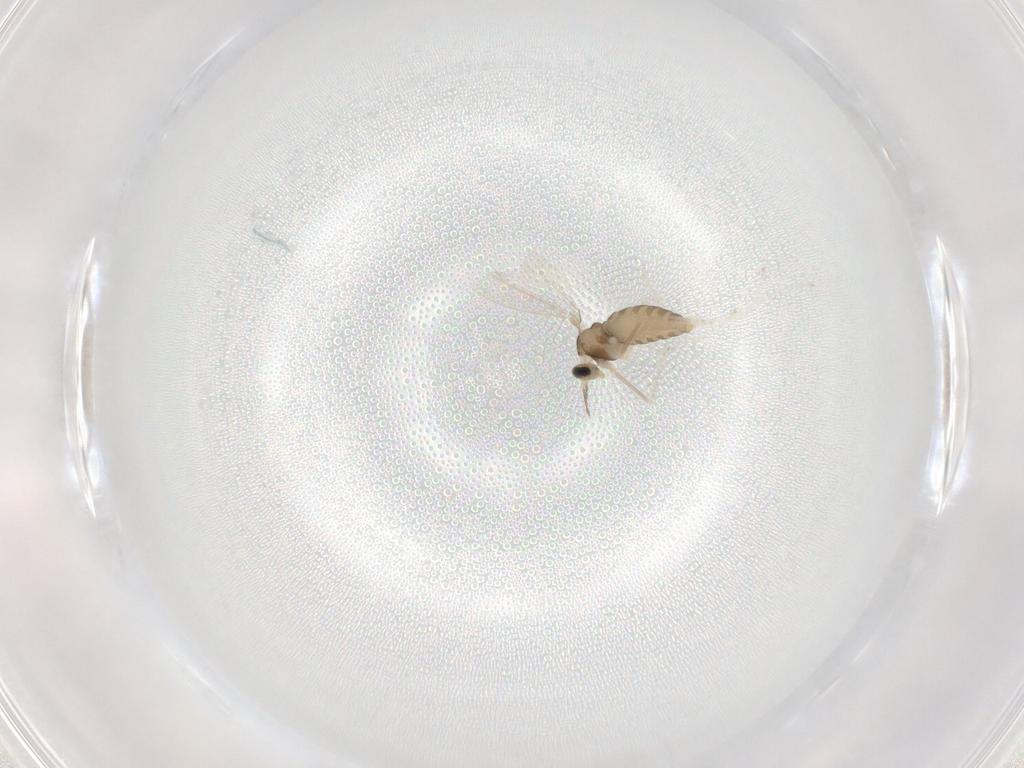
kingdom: Animalia
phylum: Arthropoda
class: Insecta
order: Diptera
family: Cecidomyiidae
